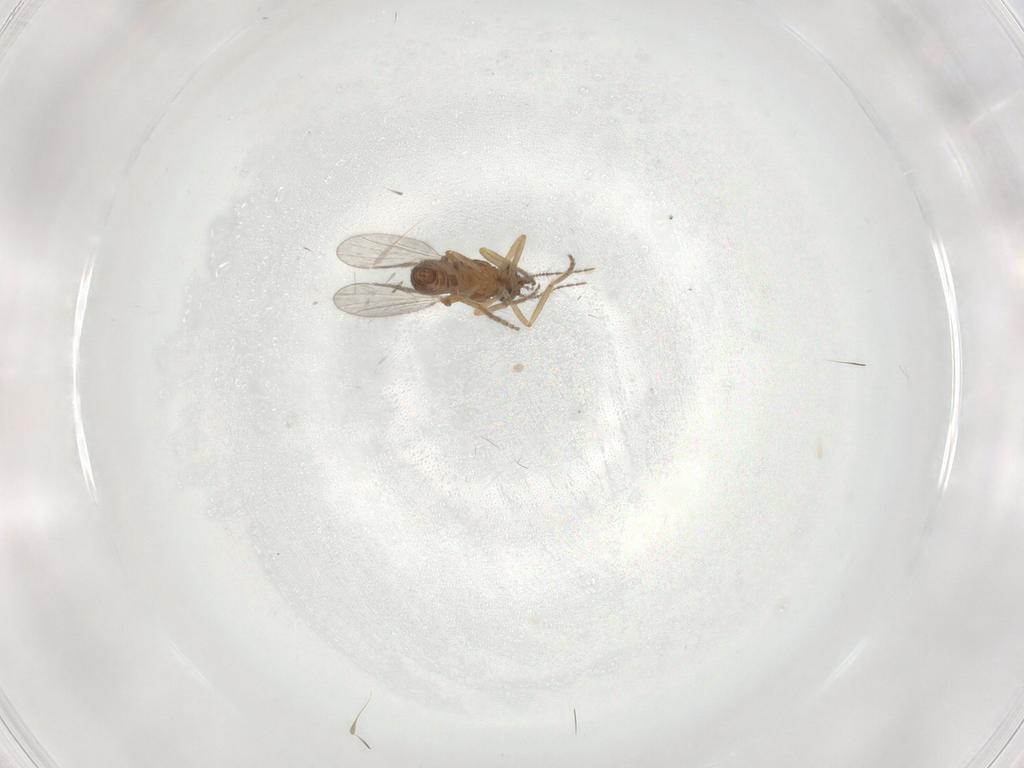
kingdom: Animalia
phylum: Arthropoda
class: Insecta
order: Diptera
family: Ceratopogonidae
